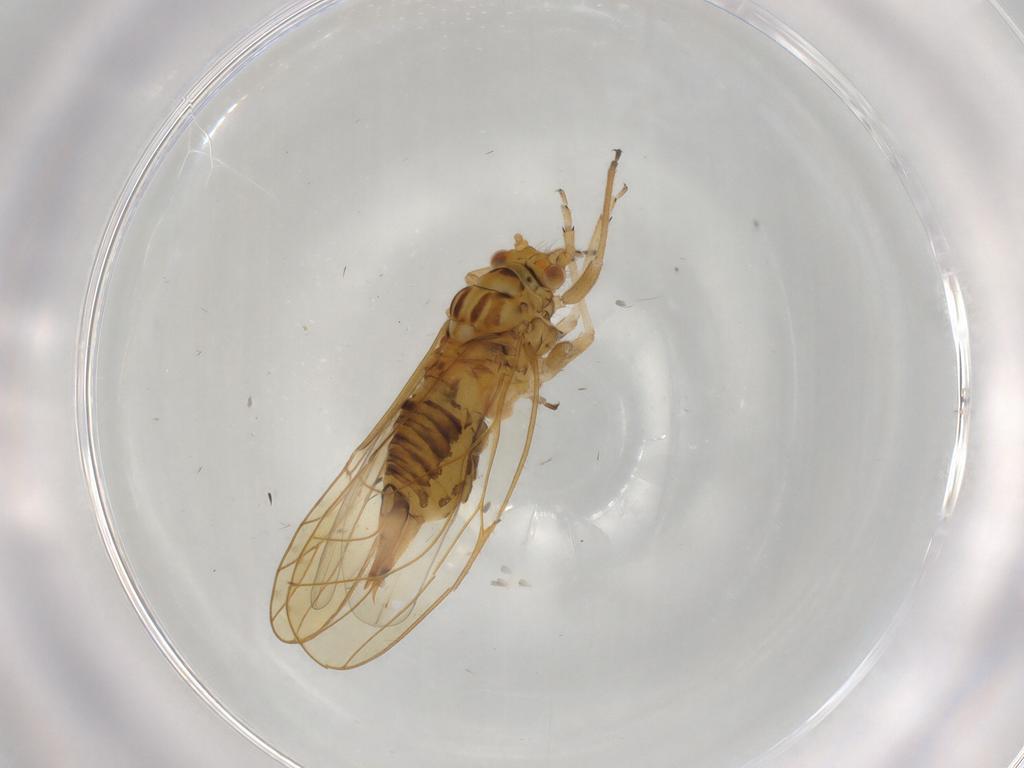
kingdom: Animalia
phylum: Arthropoda
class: Insecta
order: Hemiptera
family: Psyllidae
